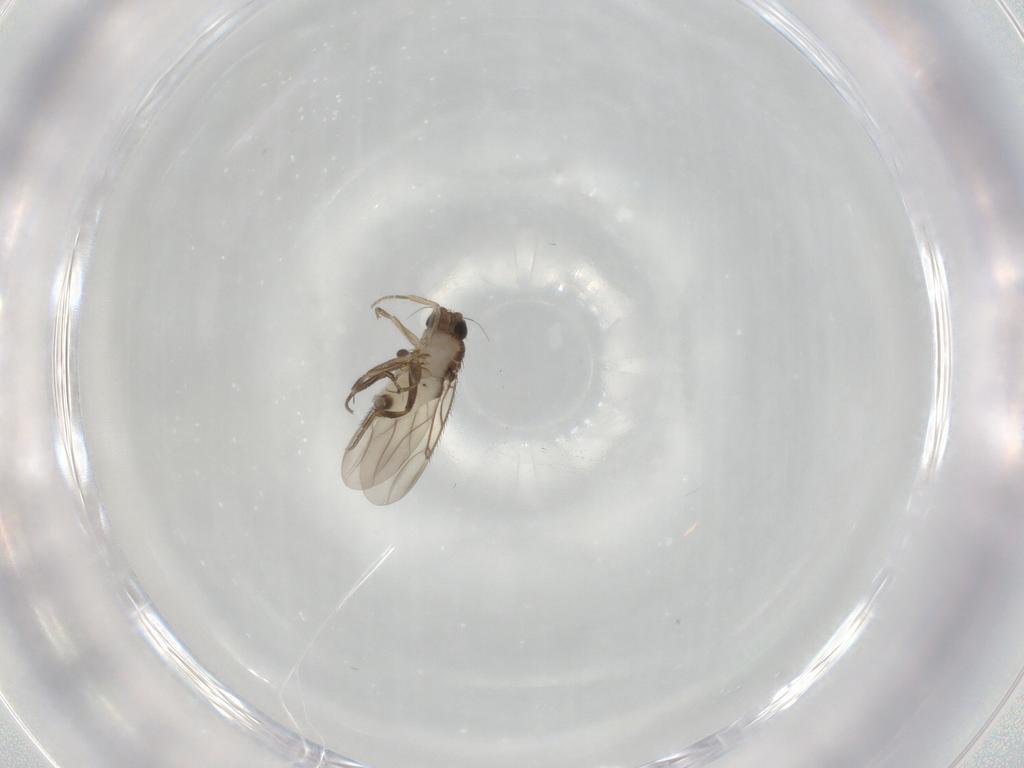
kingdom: Animalia
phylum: Arthropoda
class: Insecta
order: Diptera
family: Phoridae
